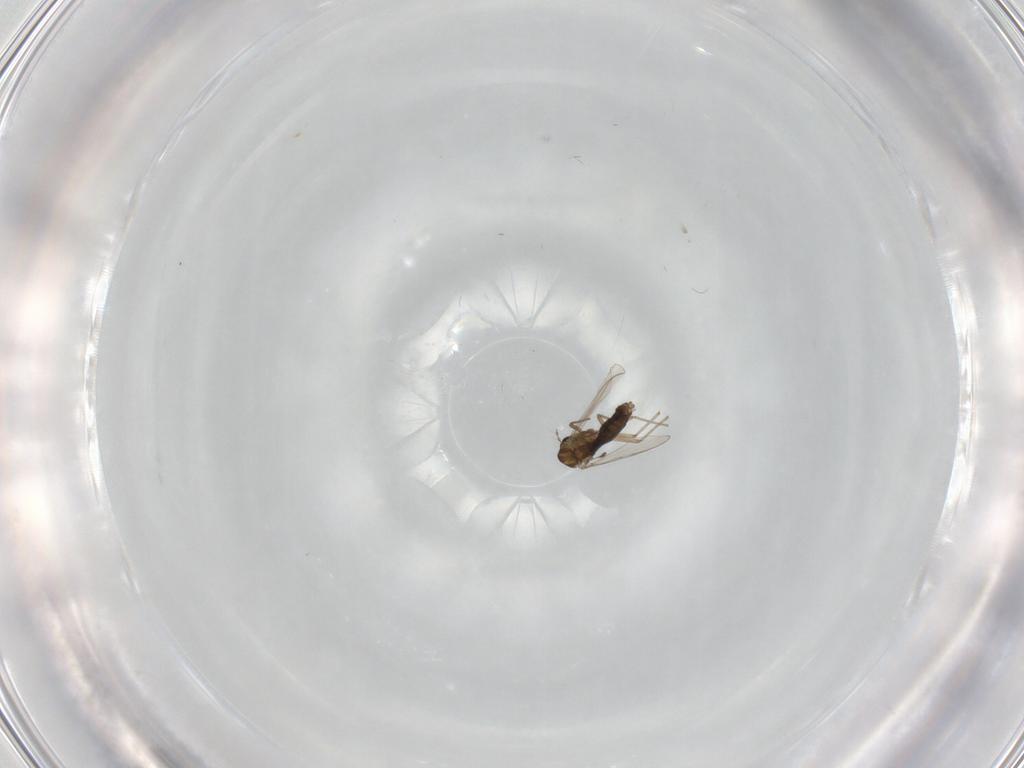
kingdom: Animalia
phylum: Arthropoda
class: Insecta
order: Diptera
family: Chironomidae
